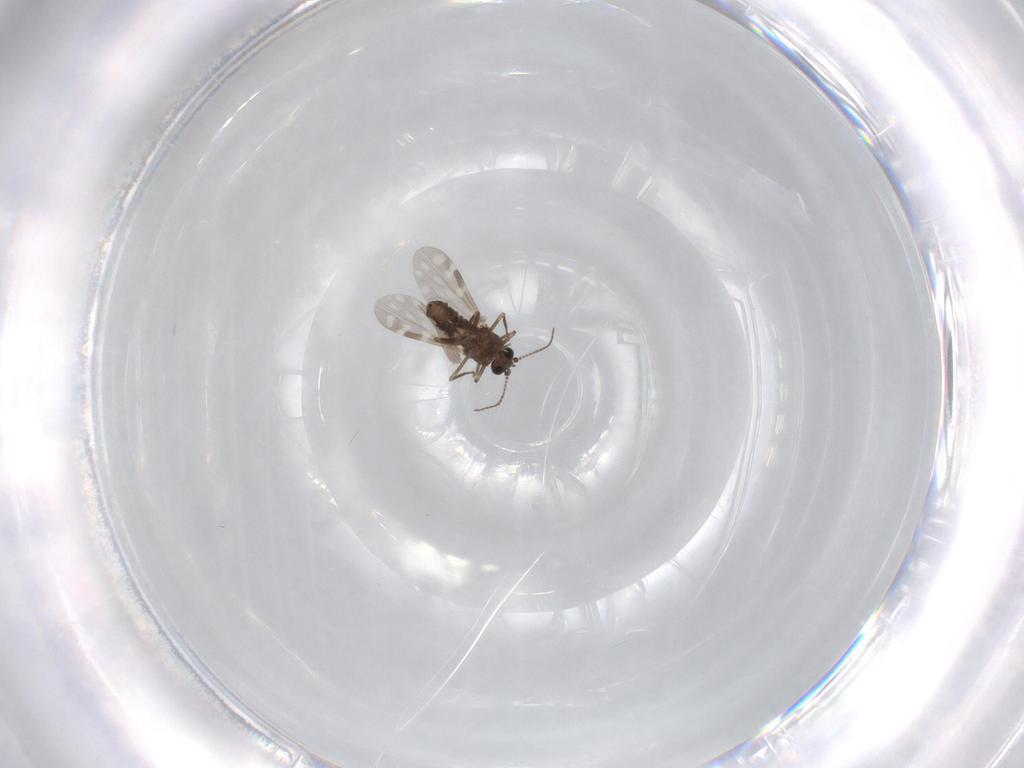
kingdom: Animalia
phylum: Arthropoda
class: Insecta
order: Diptera
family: Ceratopogonidae
